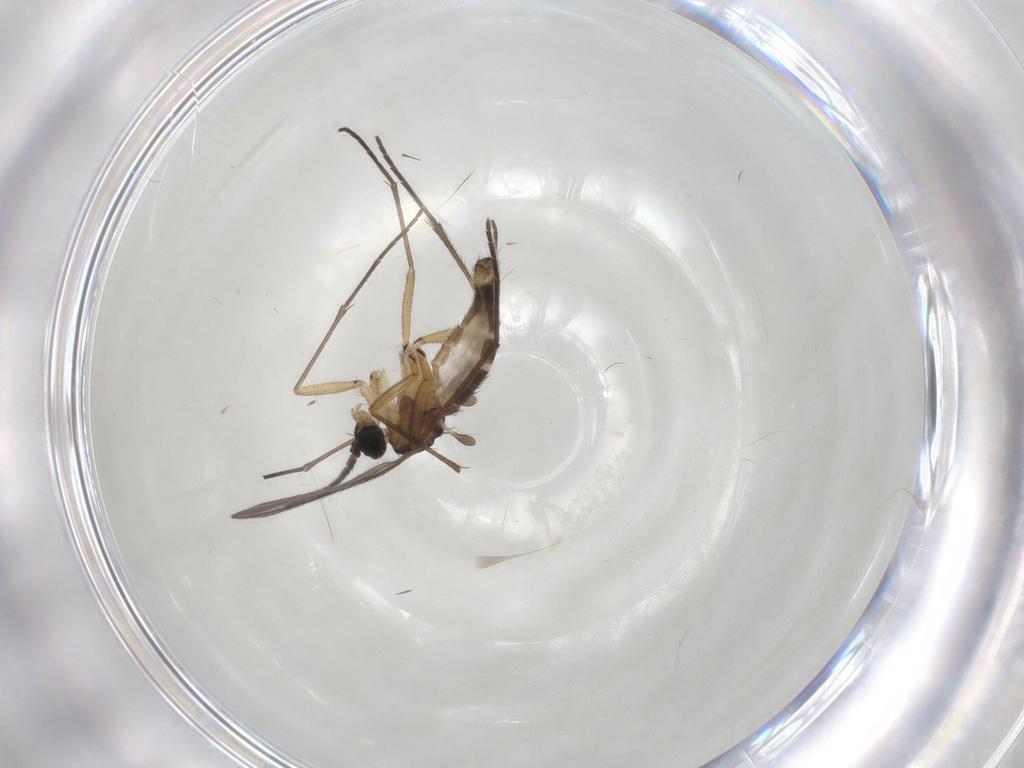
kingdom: Animalia
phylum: Arthropoda
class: Insecta
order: Diptera
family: Sciaridae
